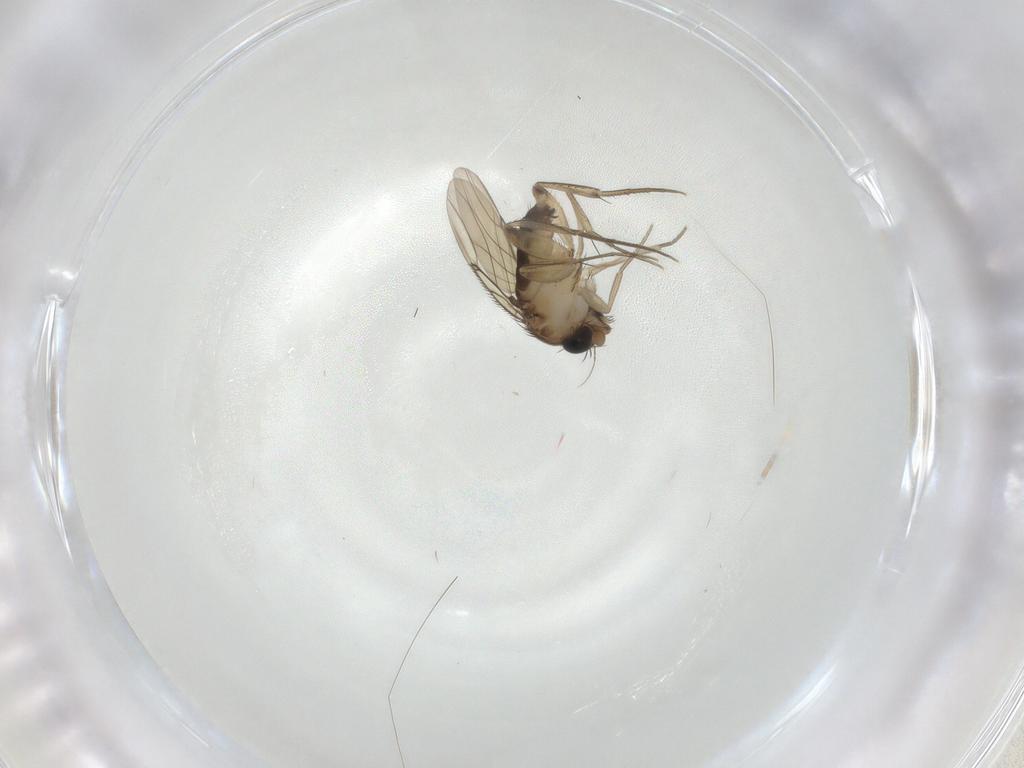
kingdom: Animalia
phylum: Arthropoda
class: Insecta
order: Diptera
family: Phoridae
